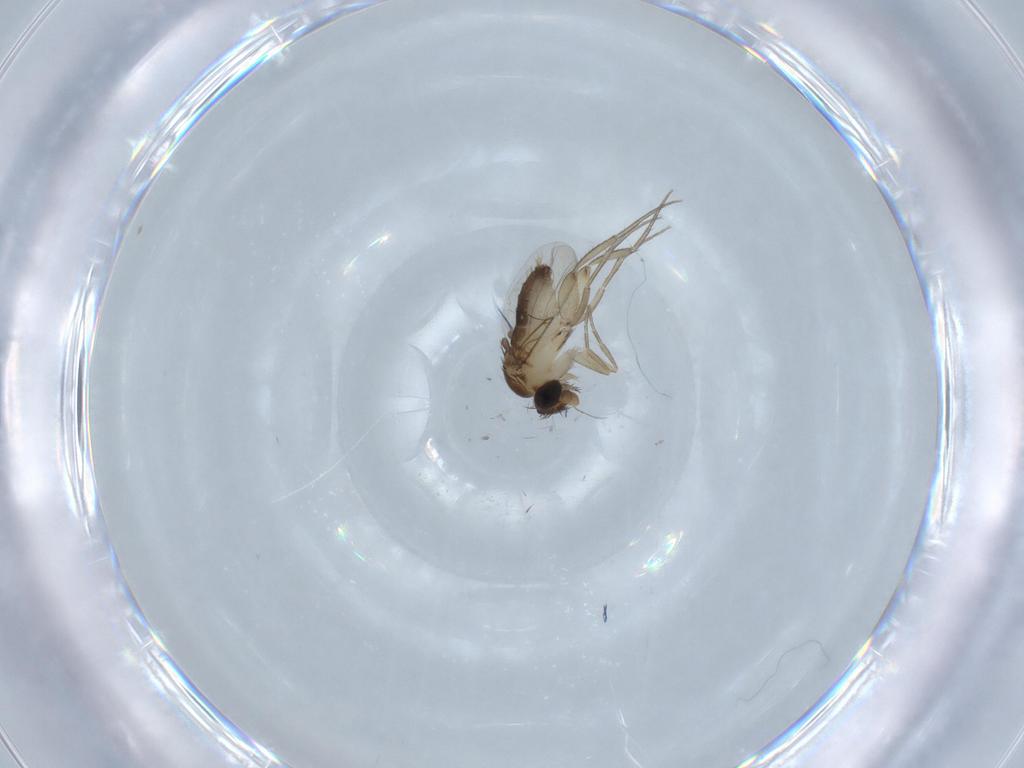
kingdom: Animalia
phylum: Arthropoda
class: Insecta
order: Diptera
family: Phoridae
